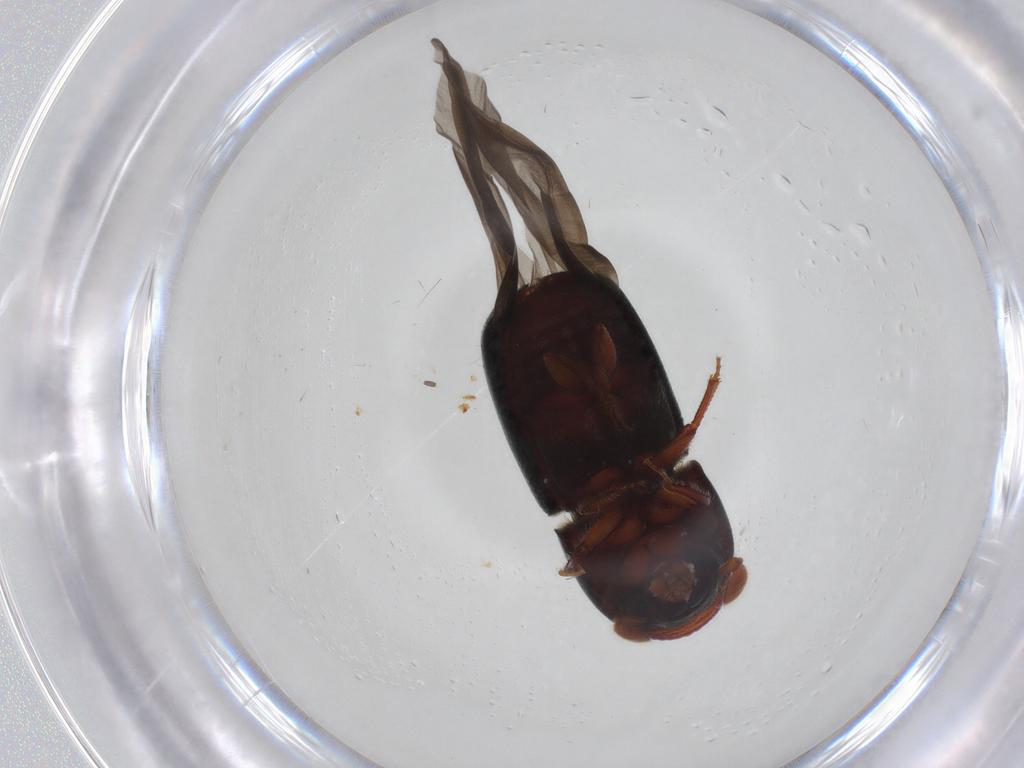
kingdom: Animalia
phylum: Arthropoda
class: Insecta
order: Coleoptera
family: Curculionidae
